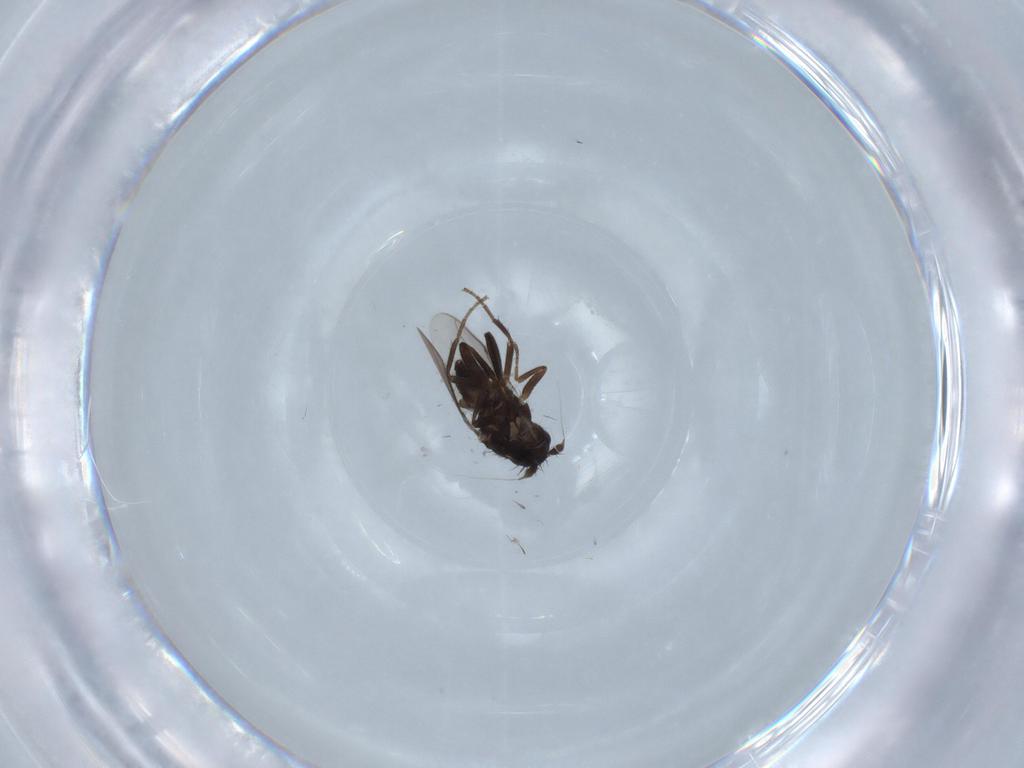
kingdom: Animalia
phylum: Arthropoda
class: Insecta
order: Diptera
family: Sphaeroceridae
